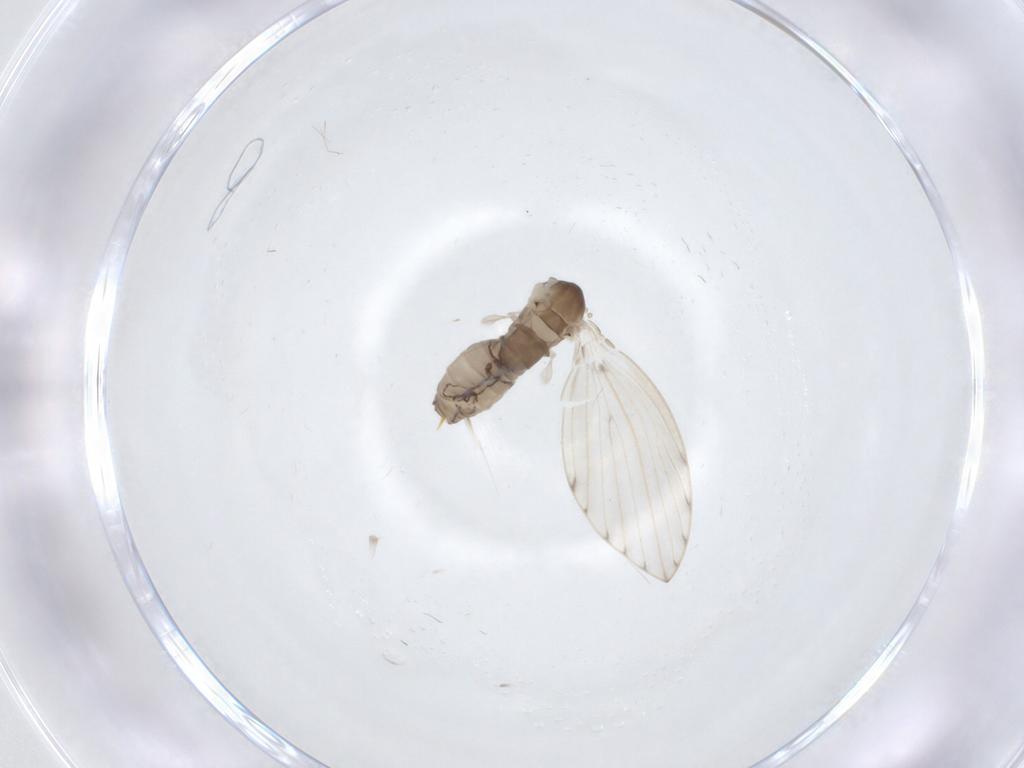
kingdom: Animalia
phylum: Arthropoda
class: Insecta
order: Diptera
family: Psychodidae
